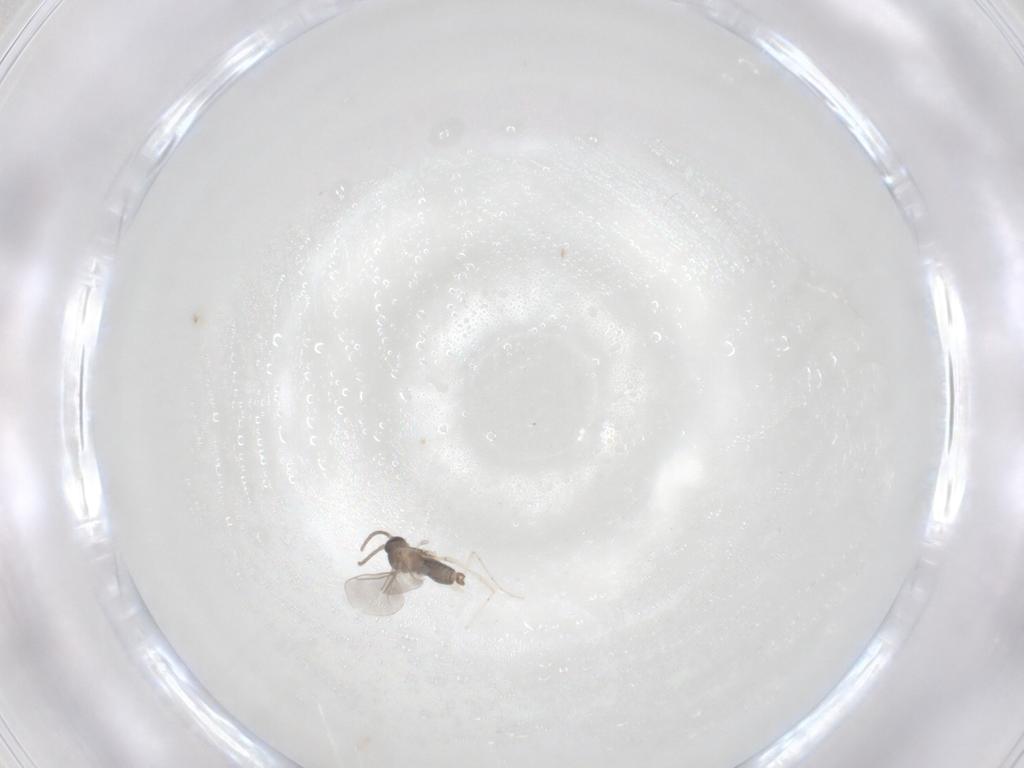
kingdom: Animalia
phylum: Arthropoda
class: Insecta
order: Diptera
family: Cecidomyiidae
